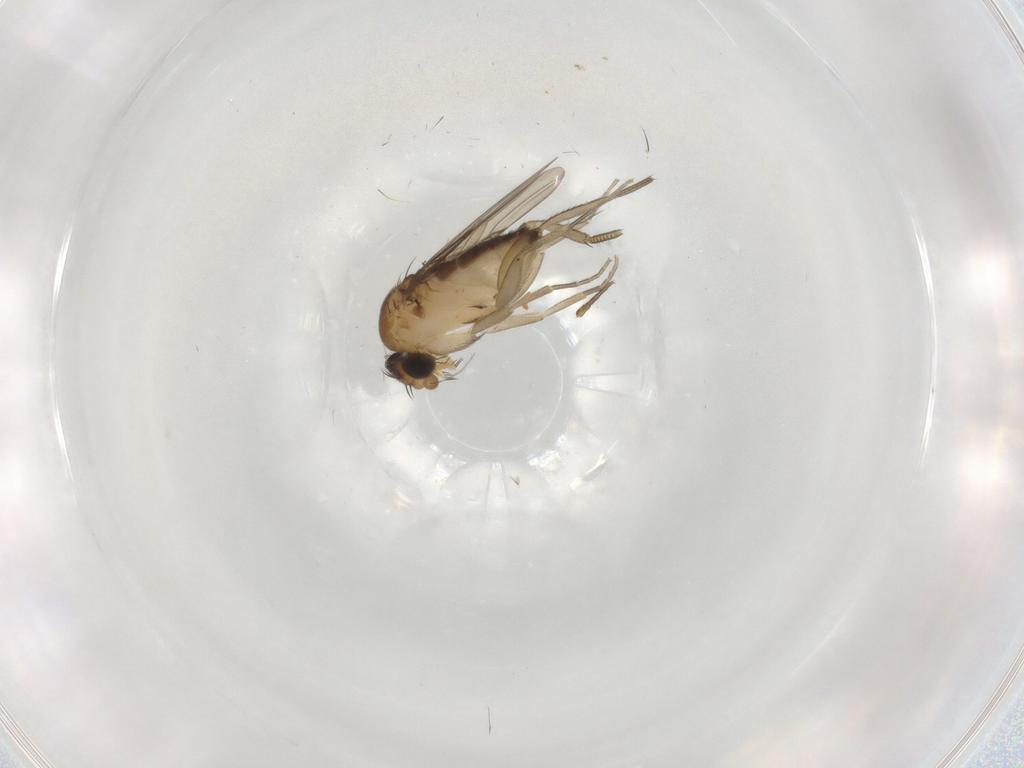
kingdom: Animalia
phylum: Arthropoda
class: Insecta
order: Diptera
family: Phoridae
